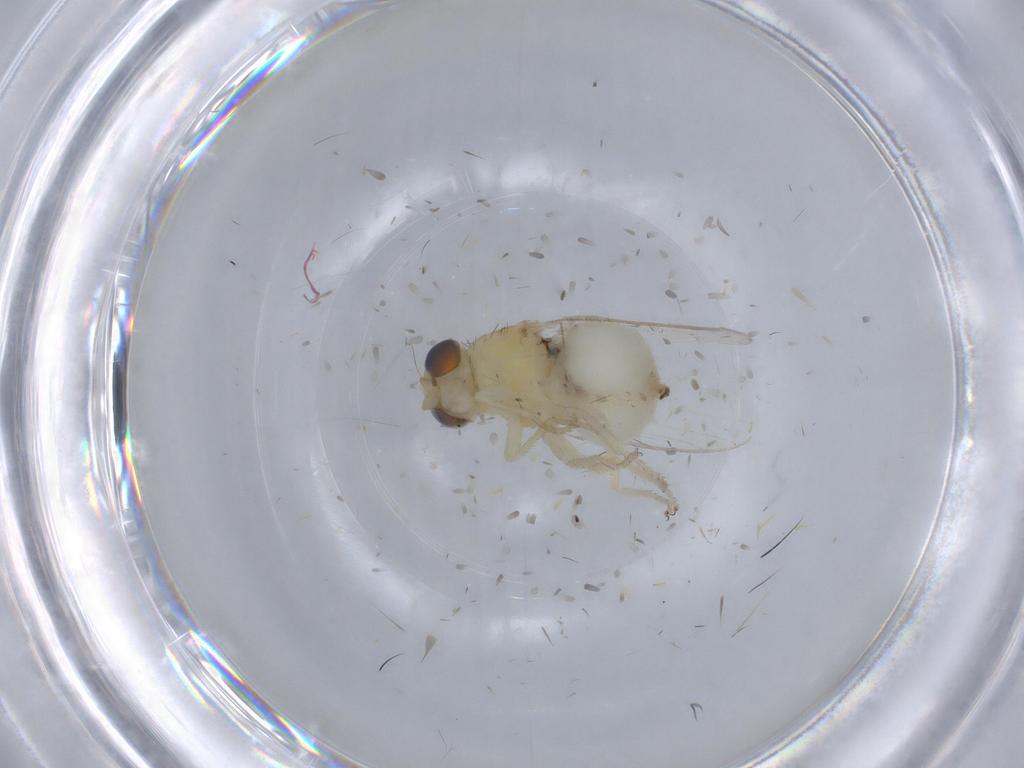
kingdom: Animalia
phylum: Arthropoda
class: Insecta
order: Diptera
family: Chloropidae
